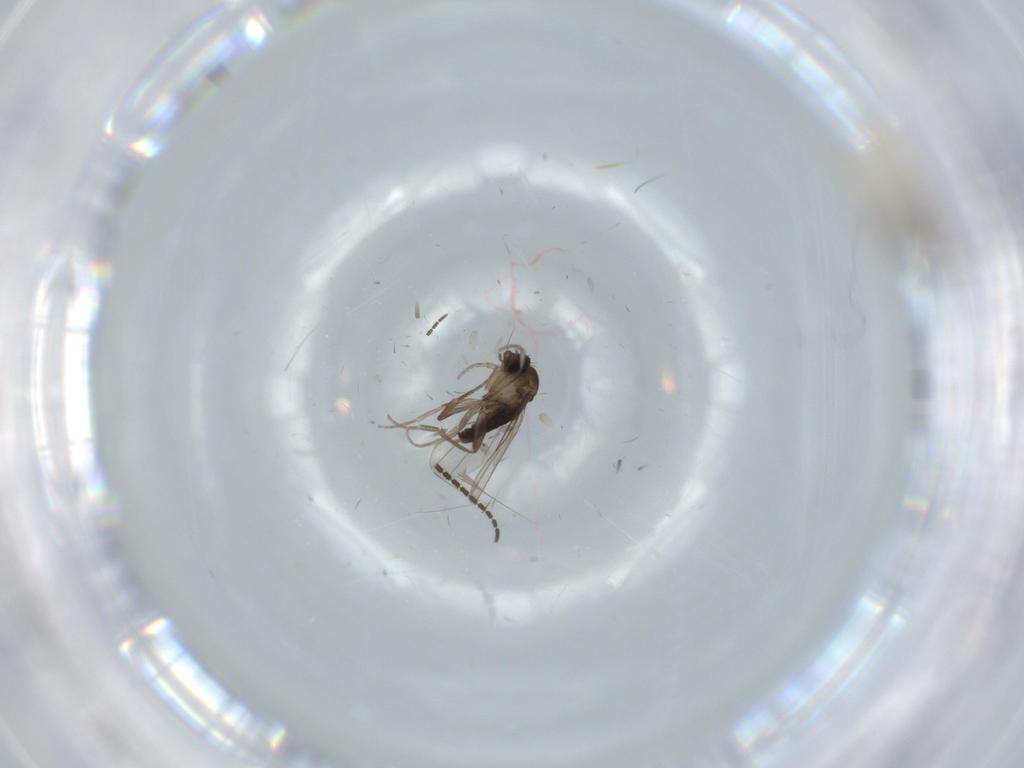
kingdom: Animalia
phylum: Arthropoda
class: Insecta
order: Diptera
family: Phoridae
